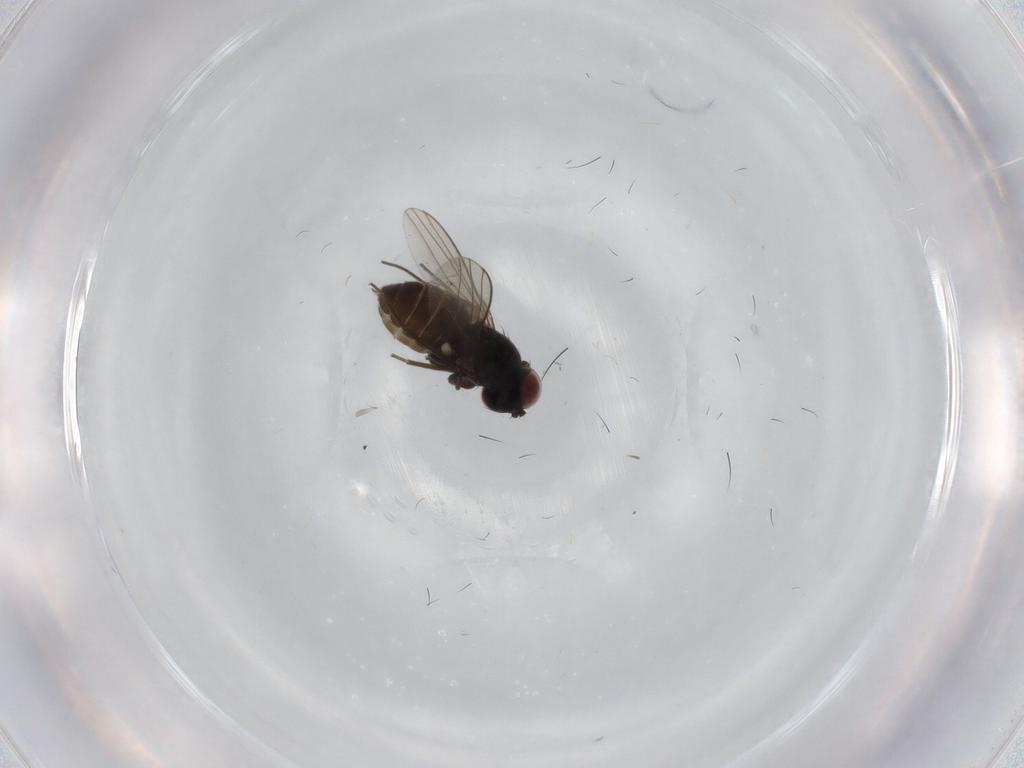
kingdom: Animalia
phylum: Arthropoda
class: Insecta
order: Diptera
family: Dolichopodidae
